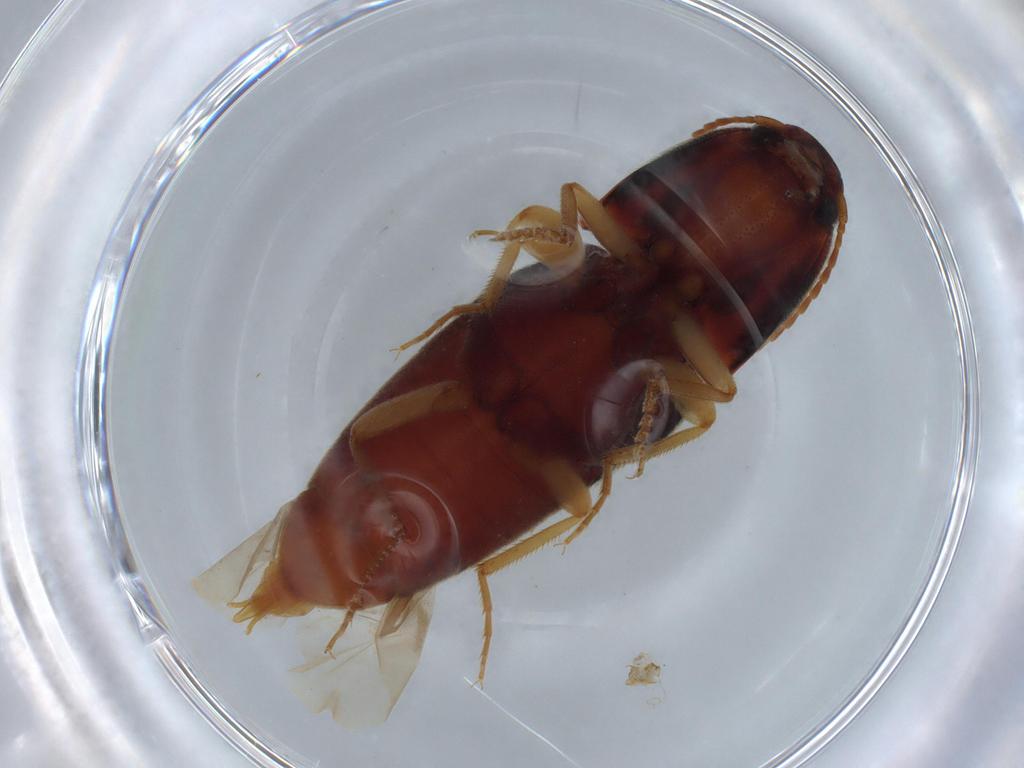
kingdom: Animalia
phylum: Arthropoda
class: Insecta
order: Coleoptera
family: Elateridae
